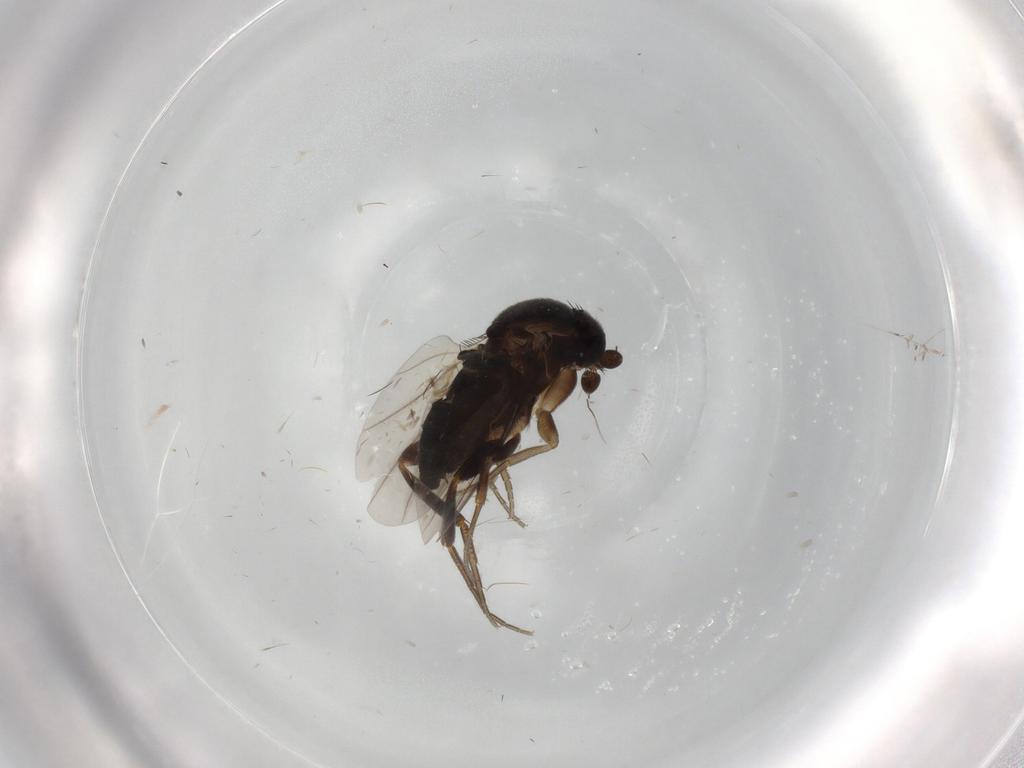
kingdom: Animalia
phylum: Arthropoda
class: Insecta
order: Diptera
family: Cecidomyiidae
